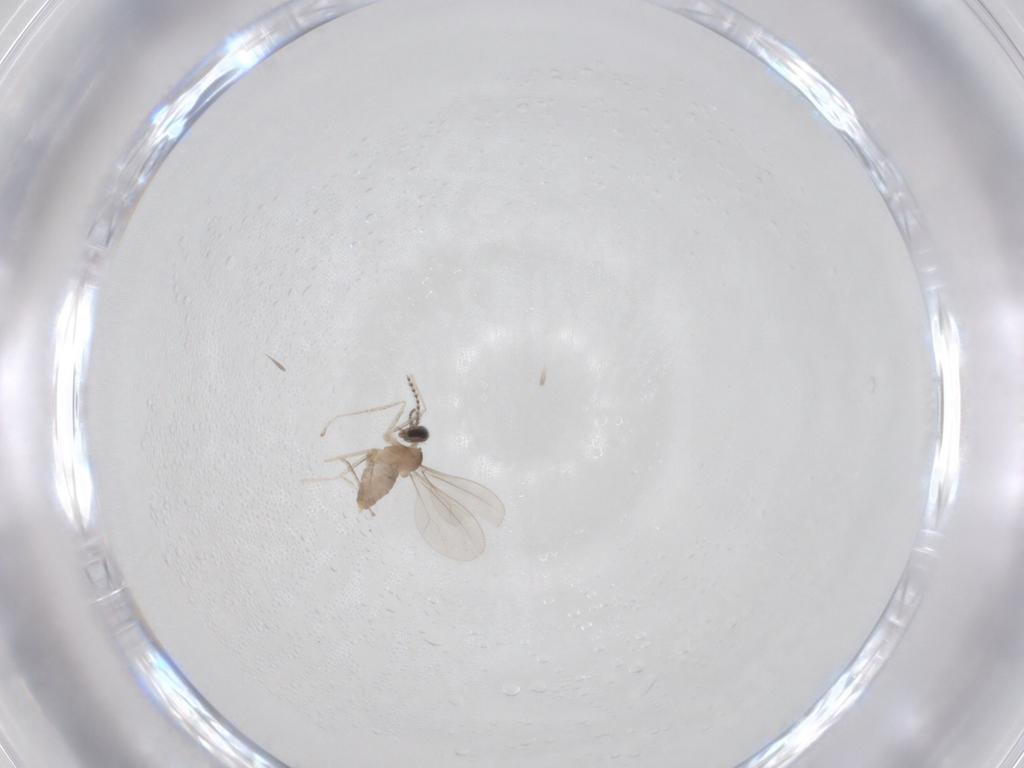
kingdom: Animalia
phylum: Arthropoda
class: Insecta
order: Diptera
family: Cecidomyiidae
